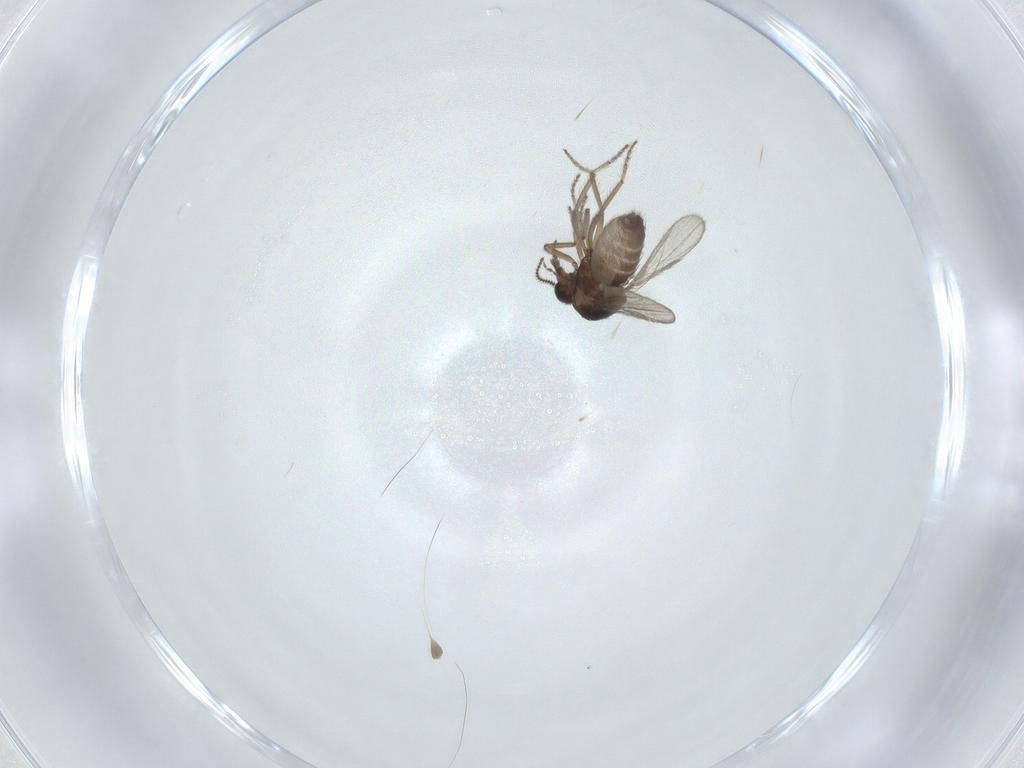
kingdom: Animalia
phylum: Arthropoda
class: Insecta
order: Diptera
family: Ceratopogonidae
